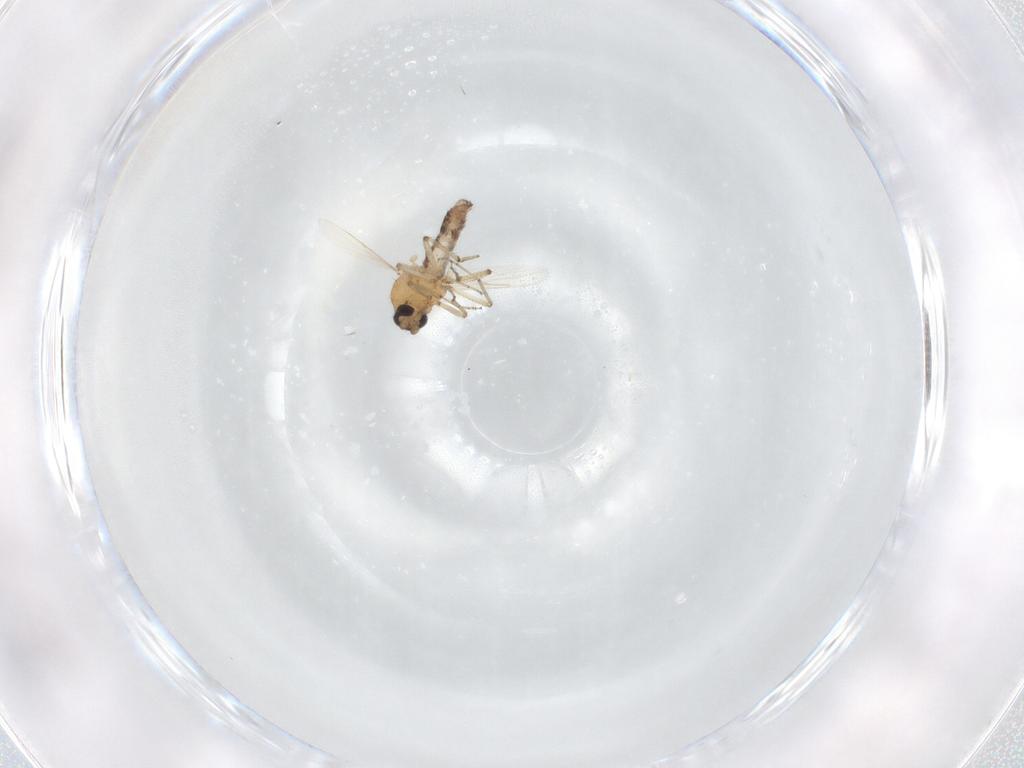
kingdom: Animalia
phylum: Arthropoda
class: Insecta
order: Diptera
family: Ceratopogonidae
